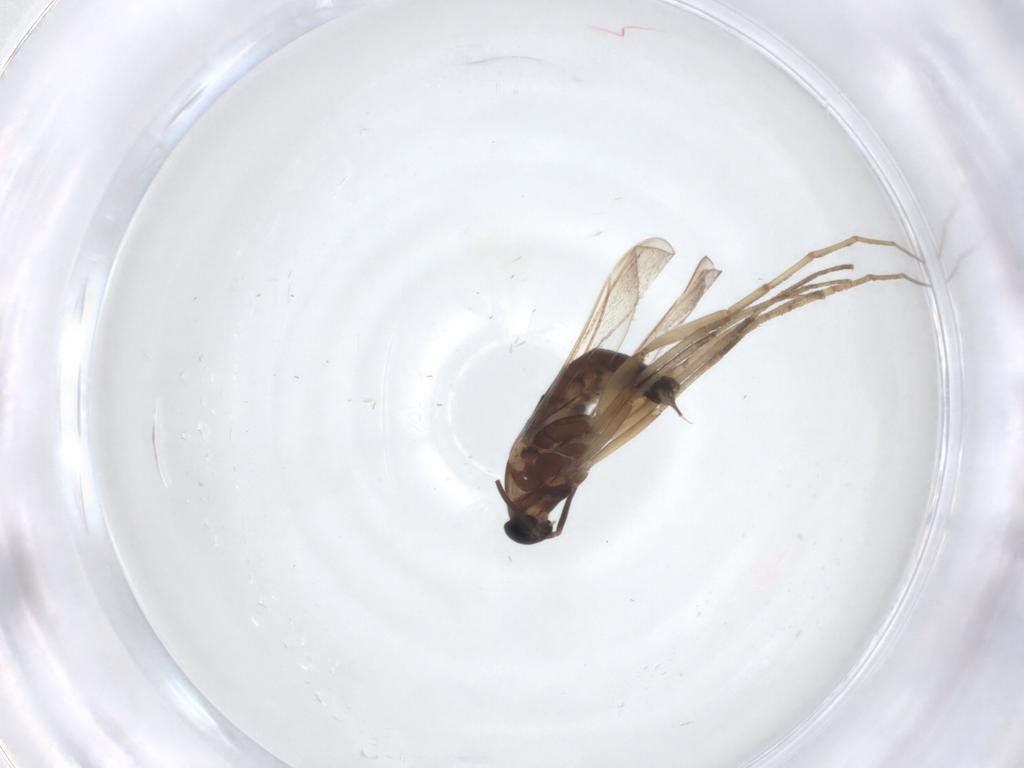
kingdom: Animalia
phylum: Arthropoda
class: Insecta
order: Diptera
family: Cecidomyiidae
